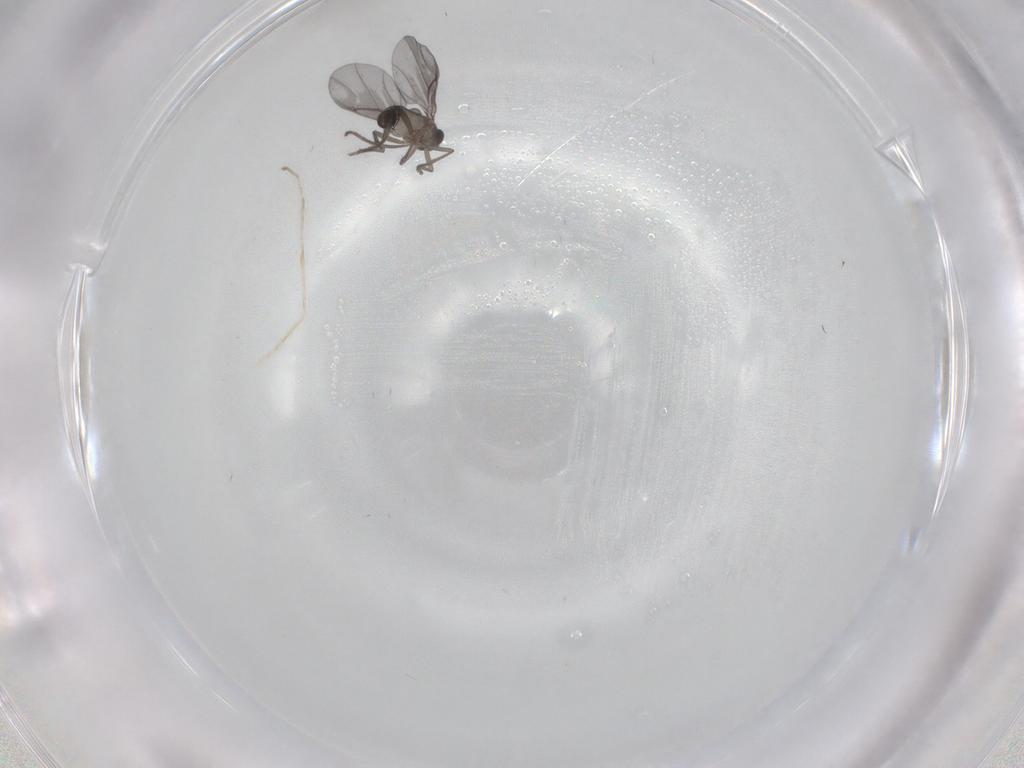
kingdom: Animalia
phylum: Arthropoda
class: Insecta
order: Diptera
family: Phoridae
